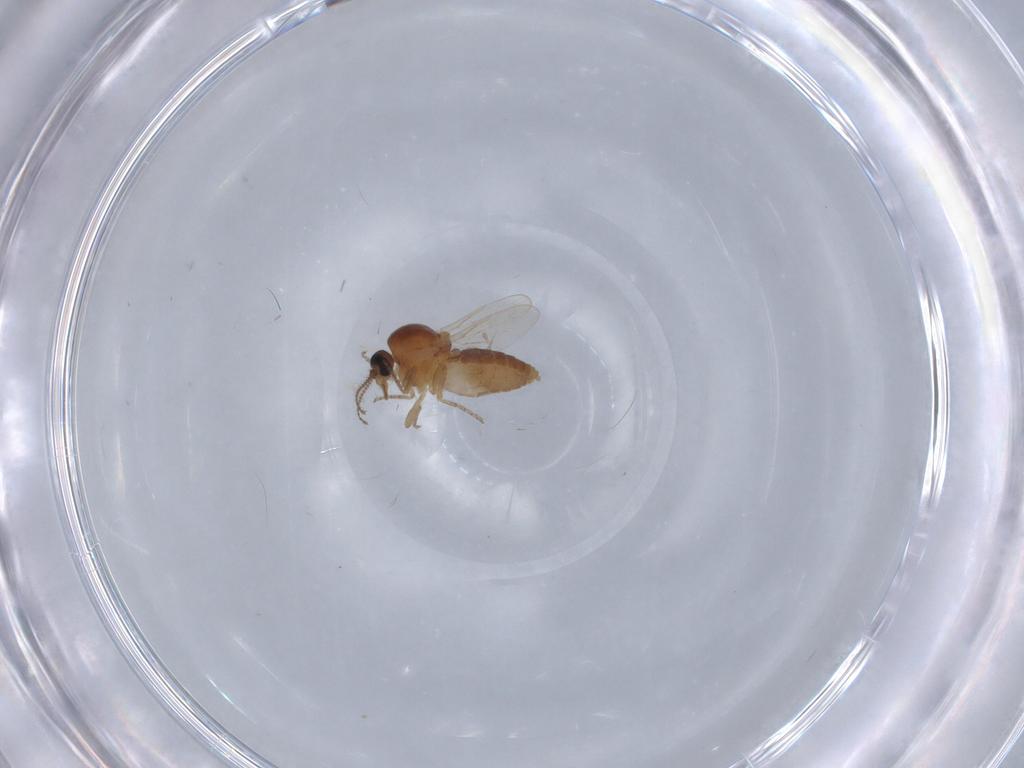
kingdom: Animalia
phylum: Arthropoda
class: Insecta
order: Diptera
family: Ceratopogonidae
